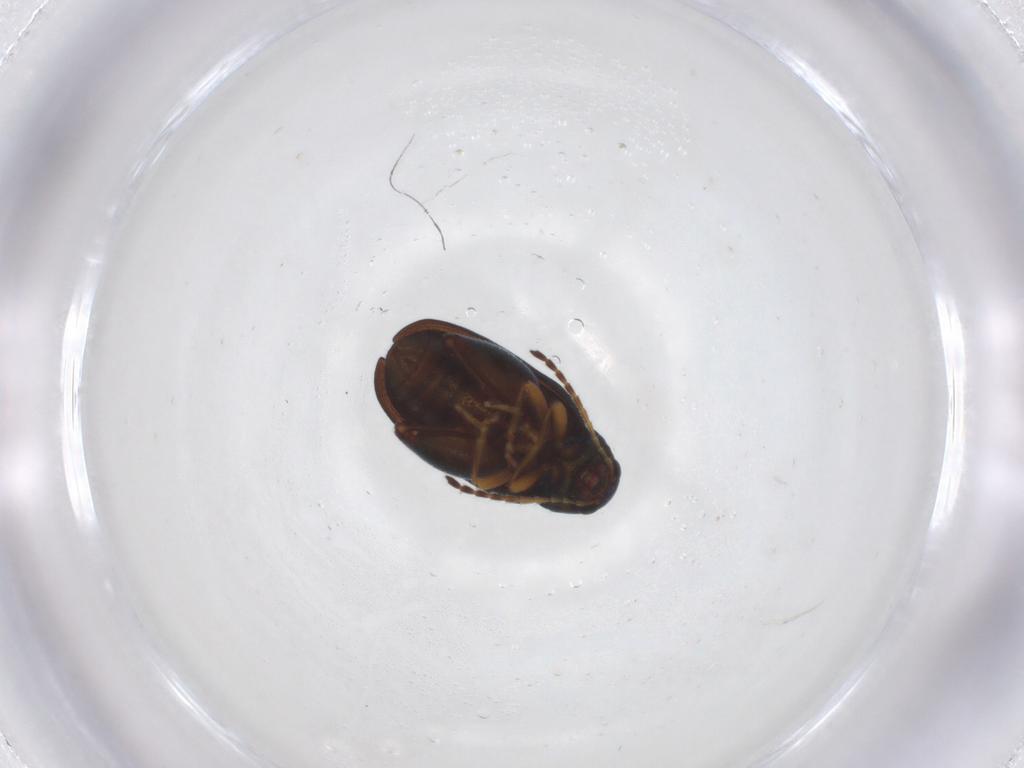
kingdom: Animalia
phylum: Arthropoda
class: Insecta
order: Coleoptera
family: Chrysomelidae
